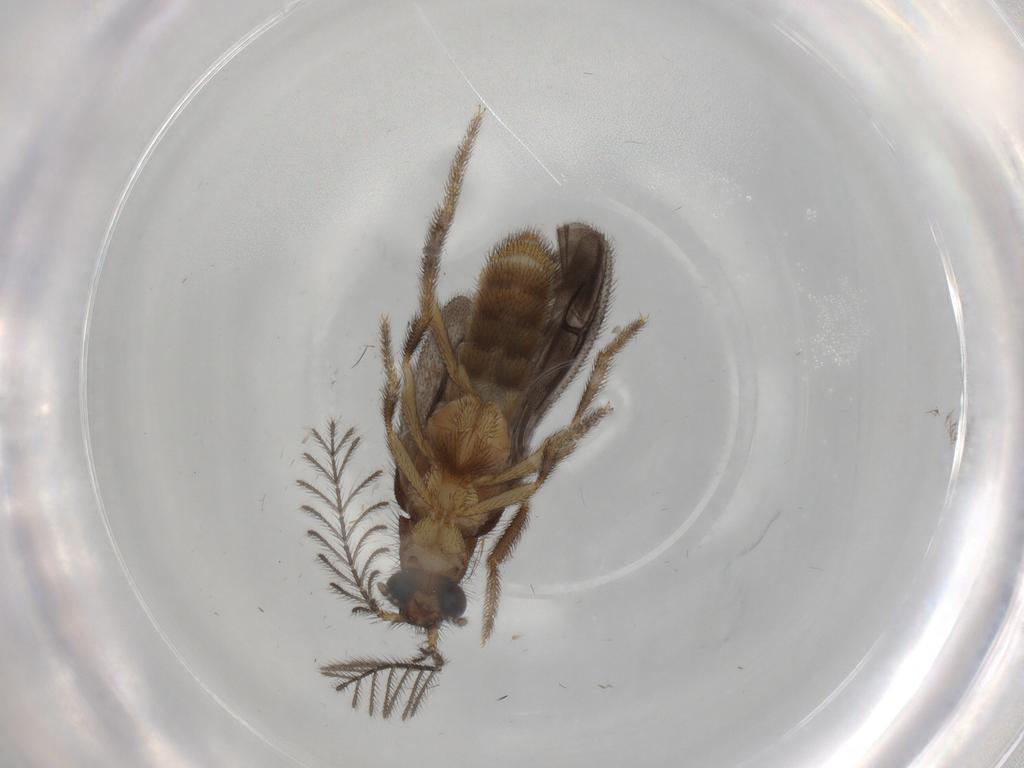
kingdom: Animalia
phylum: Arthropoda
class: Insecta
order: Coleoptera
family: Phengodidae
